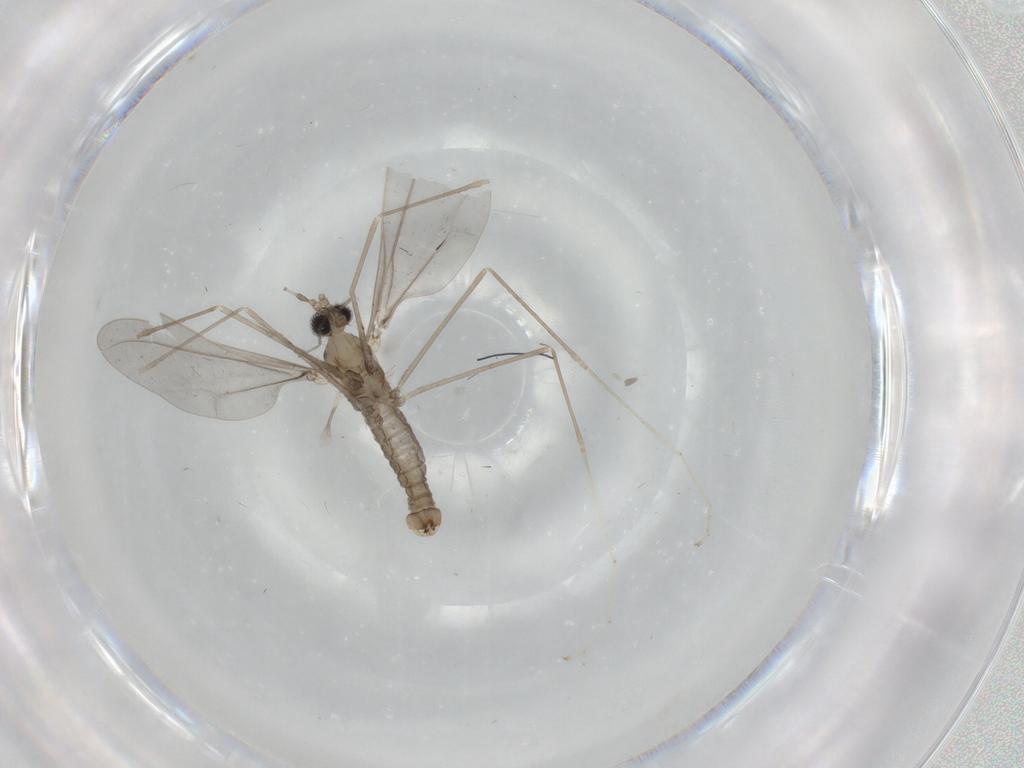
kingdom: Animalia
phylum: Arthropoda
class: Insecta
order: Diptera
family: Cecidomyiidae
